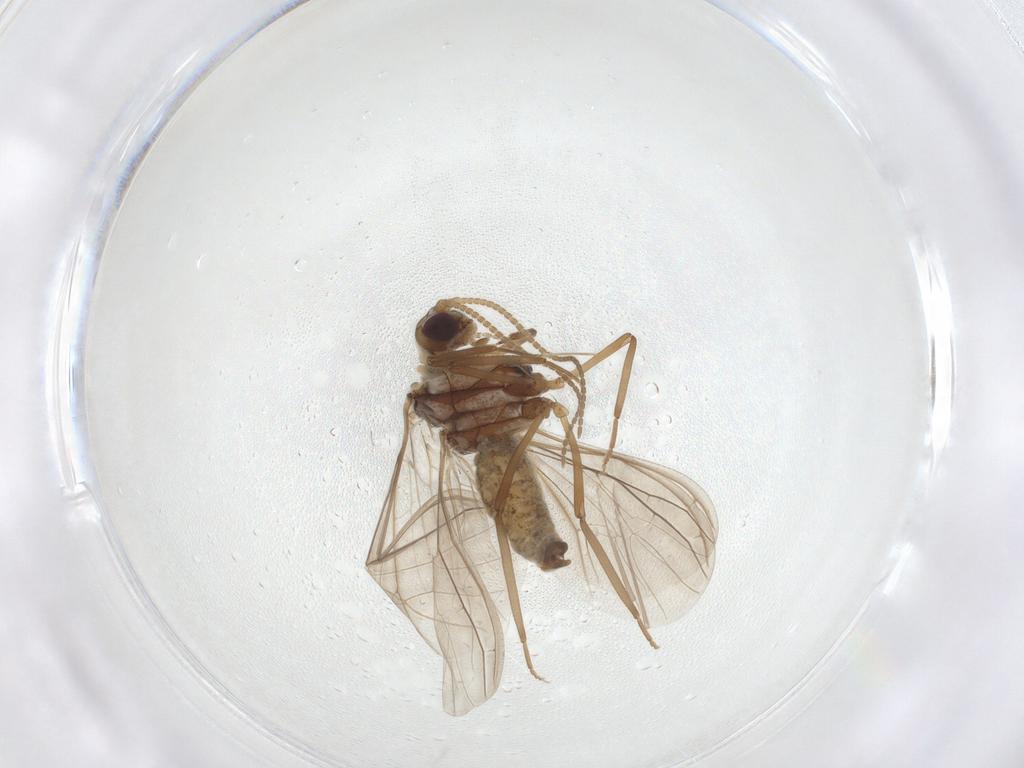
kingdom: Animalia
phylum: Arthropoda
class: Insecta
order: Neuroptera
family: Coniopterygidae
